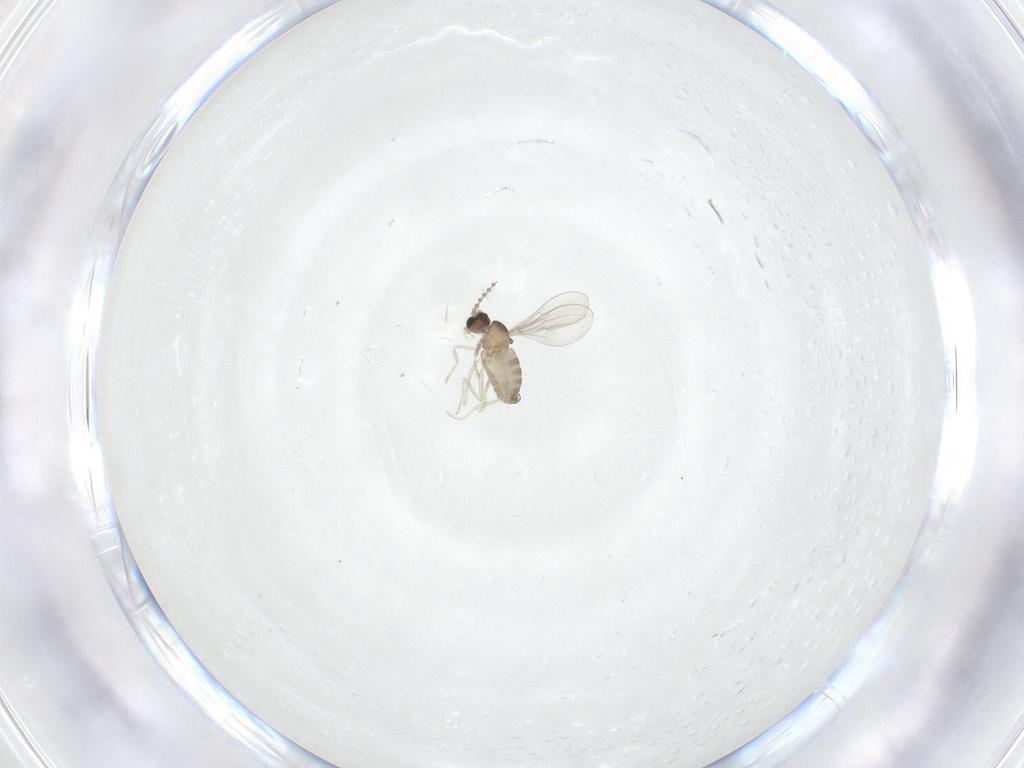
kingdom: Animalia
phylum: Arthropoda
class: Insecta
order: Diptera
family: Cecidomyiidae
